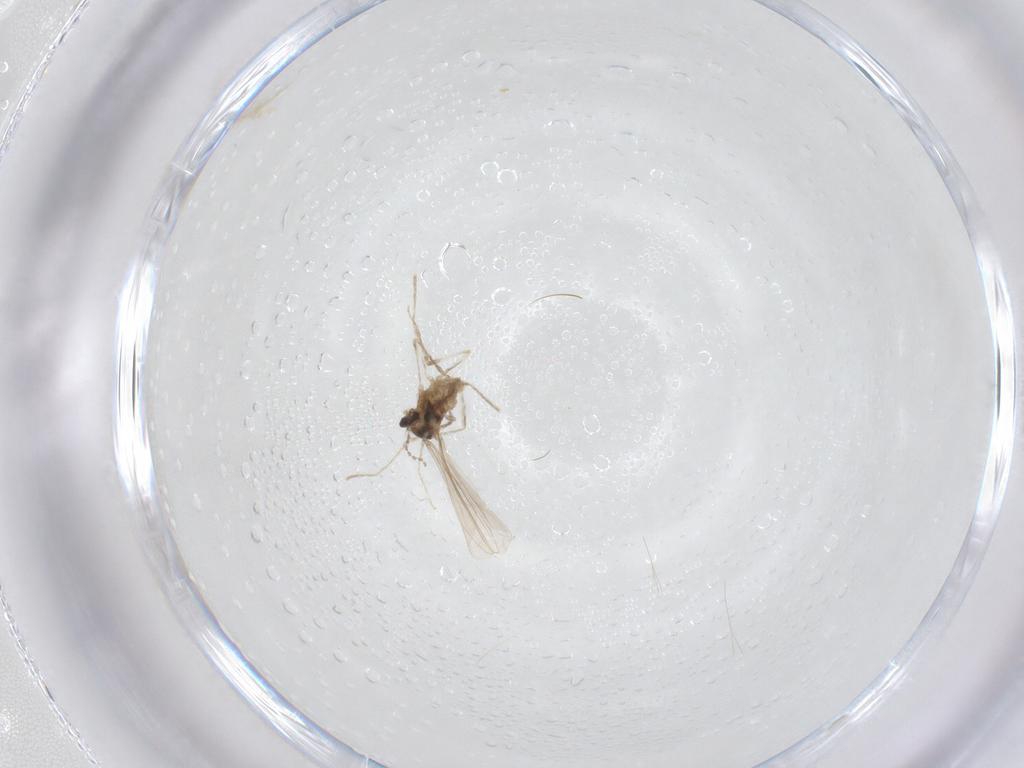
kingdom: Animalia
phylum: Arthropoda
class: Insecta
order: Diptera
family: Cecidomyiidae
